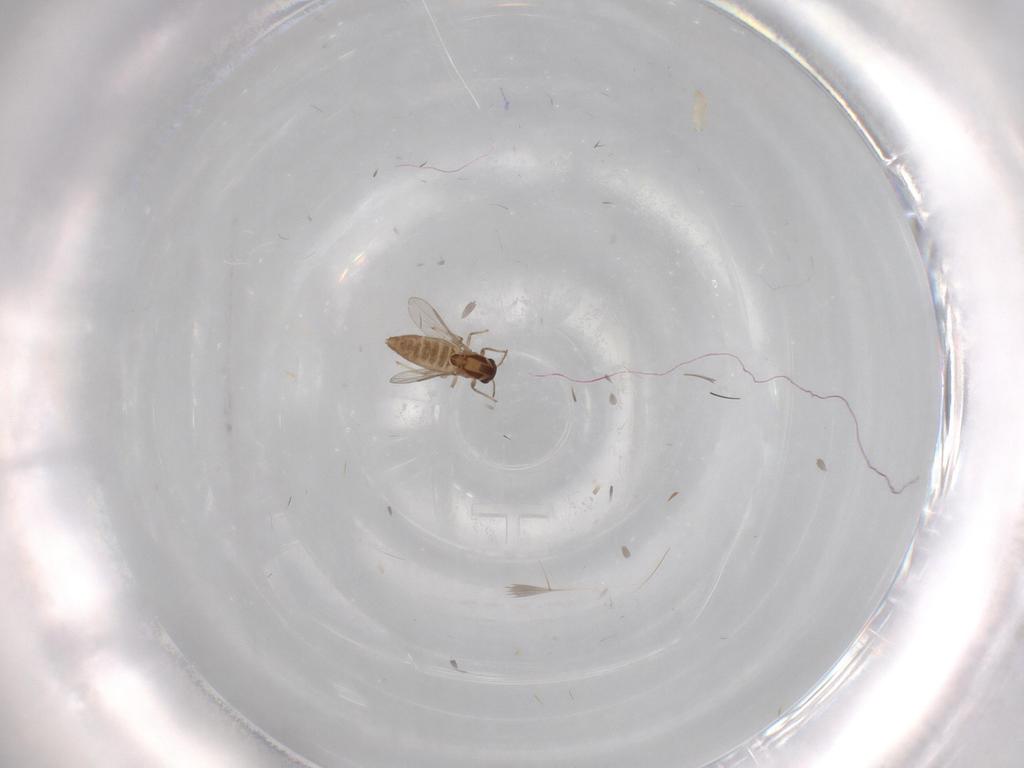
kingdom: Animalia
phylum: Arthropoda
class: Insecta
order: Diptera
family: Chironomidae
